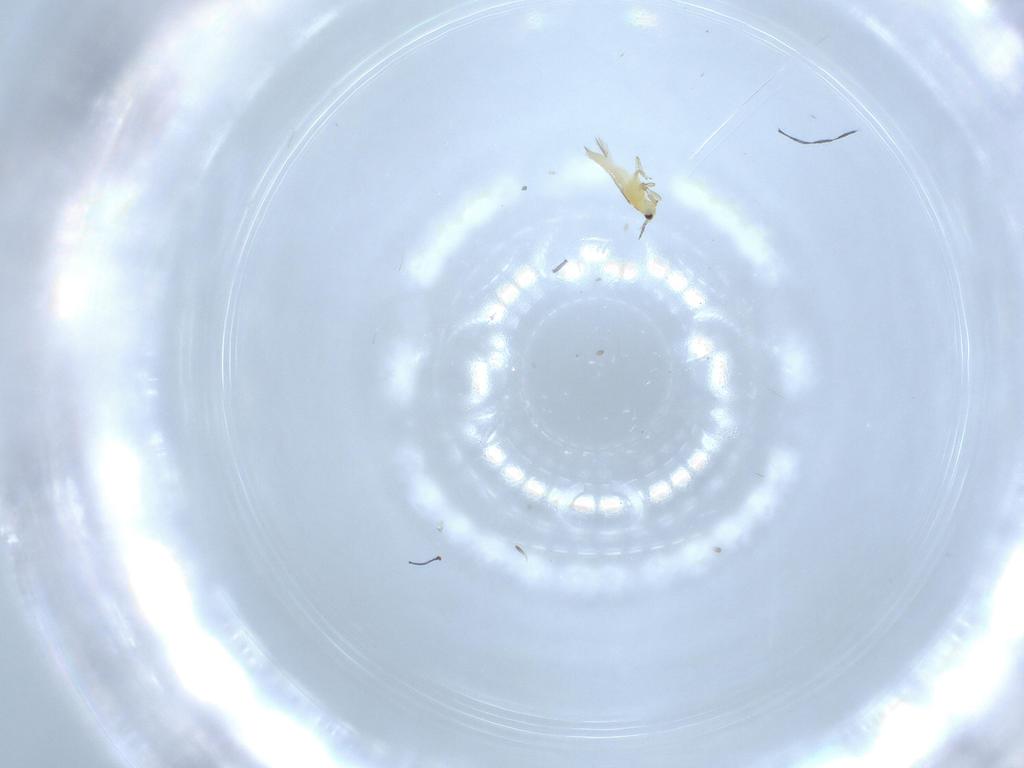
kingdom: Animalia
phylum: Arthropoda
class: Insecta
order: Thysanoptera
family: Thripidae
